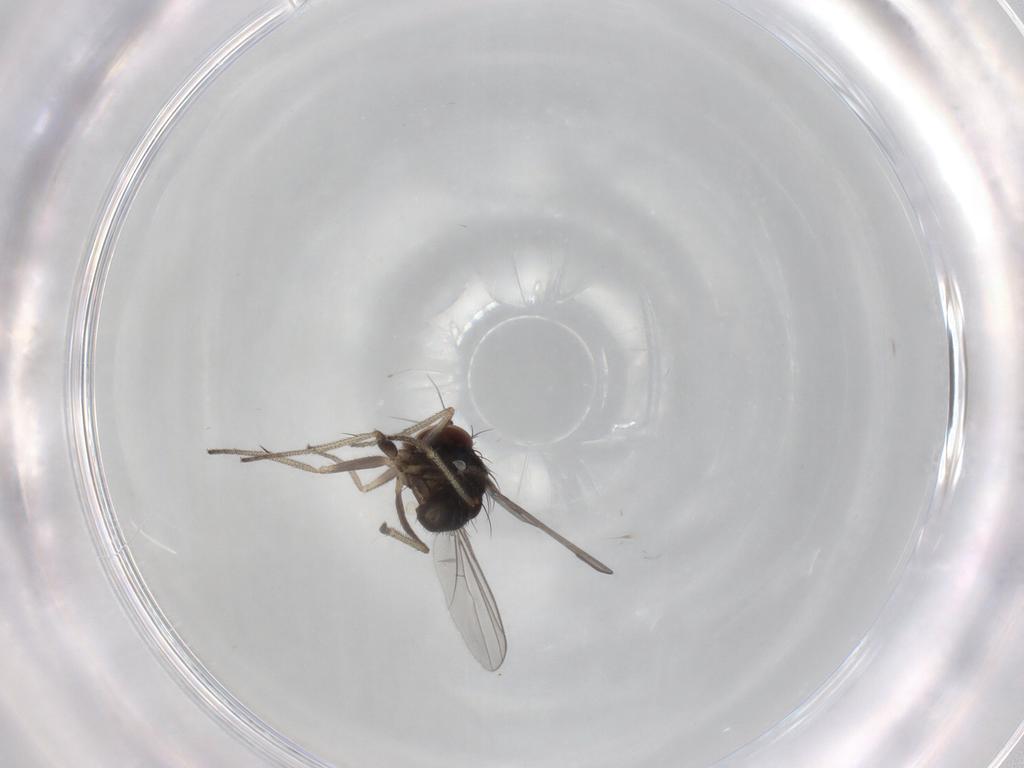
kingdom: Animalia
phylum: Arthropoda
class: Insecta
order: Diptera
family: Dolichopodidae
